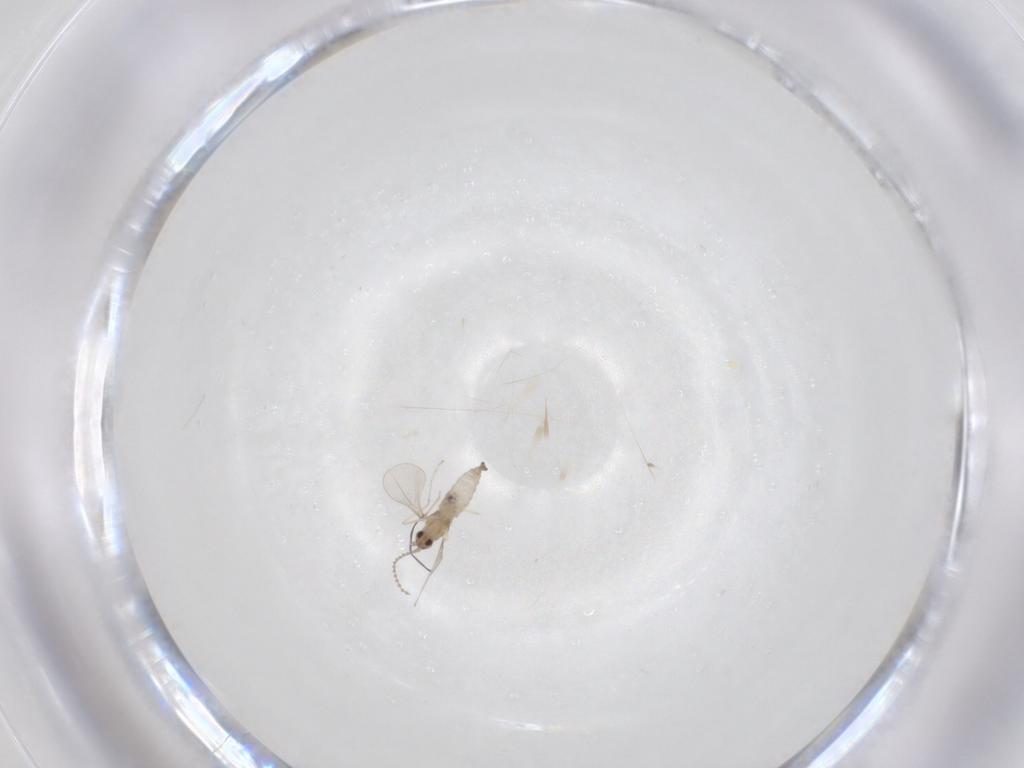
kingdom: Animalia
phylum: Arthropoda
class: Insecta
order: Diptera
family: Cecidomyiidae
